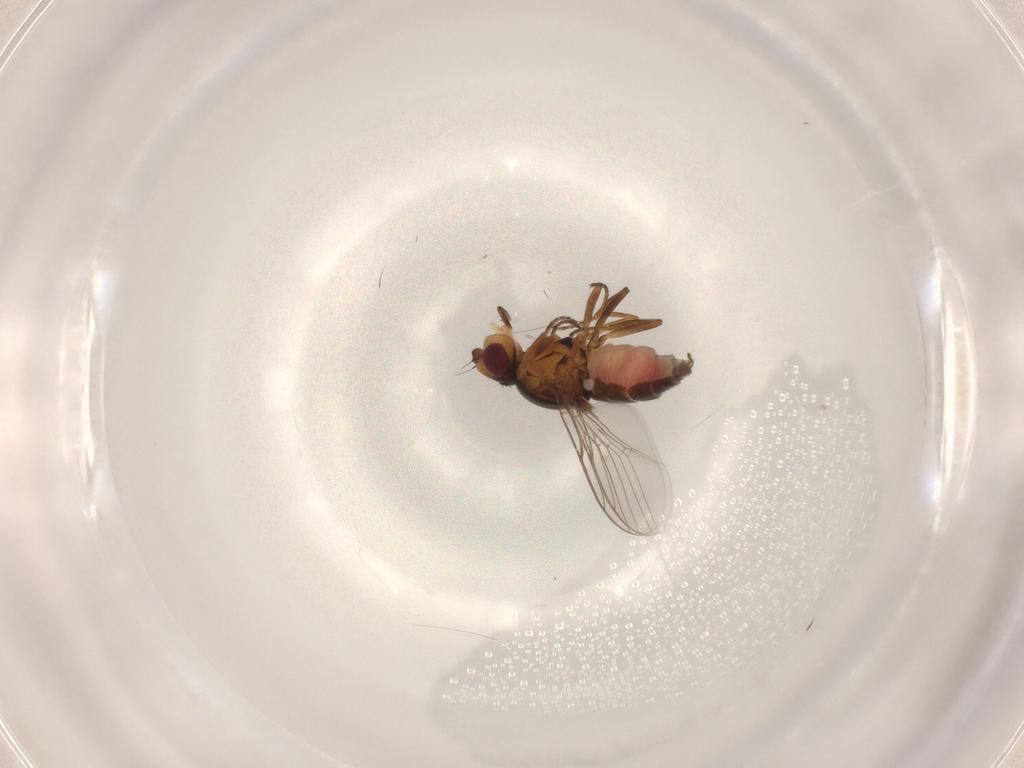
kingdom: Animalia
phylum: Arthropoda
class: Insecta
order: Diptera
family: Chloropidae
